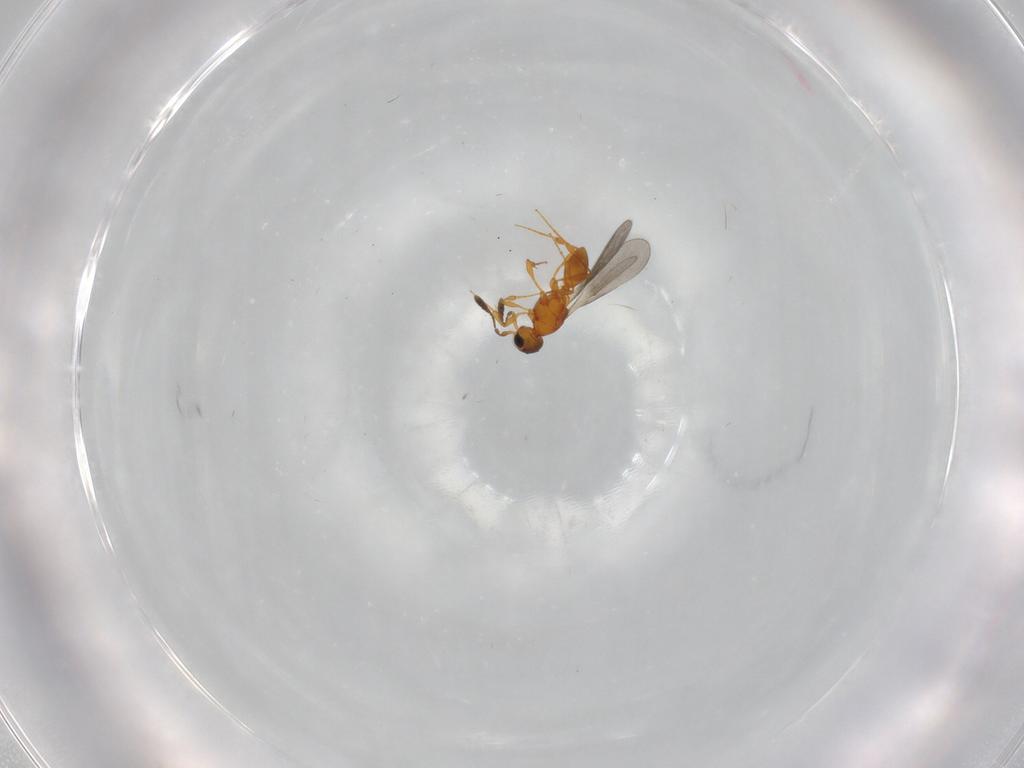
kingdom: Animalia
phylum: Arthropoda
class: Insecta
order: Hymenoptera
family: Platygastridae
